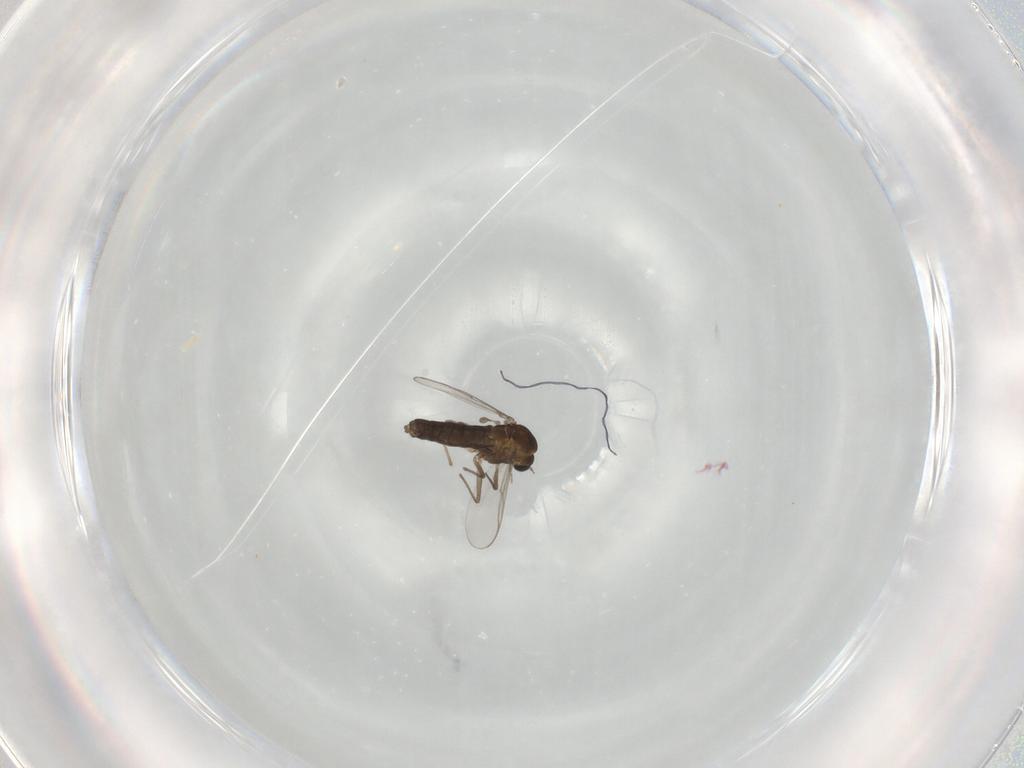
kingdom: Animalia
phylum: Arthropoda
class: Insecta
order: Diptera
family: Chironomidae
